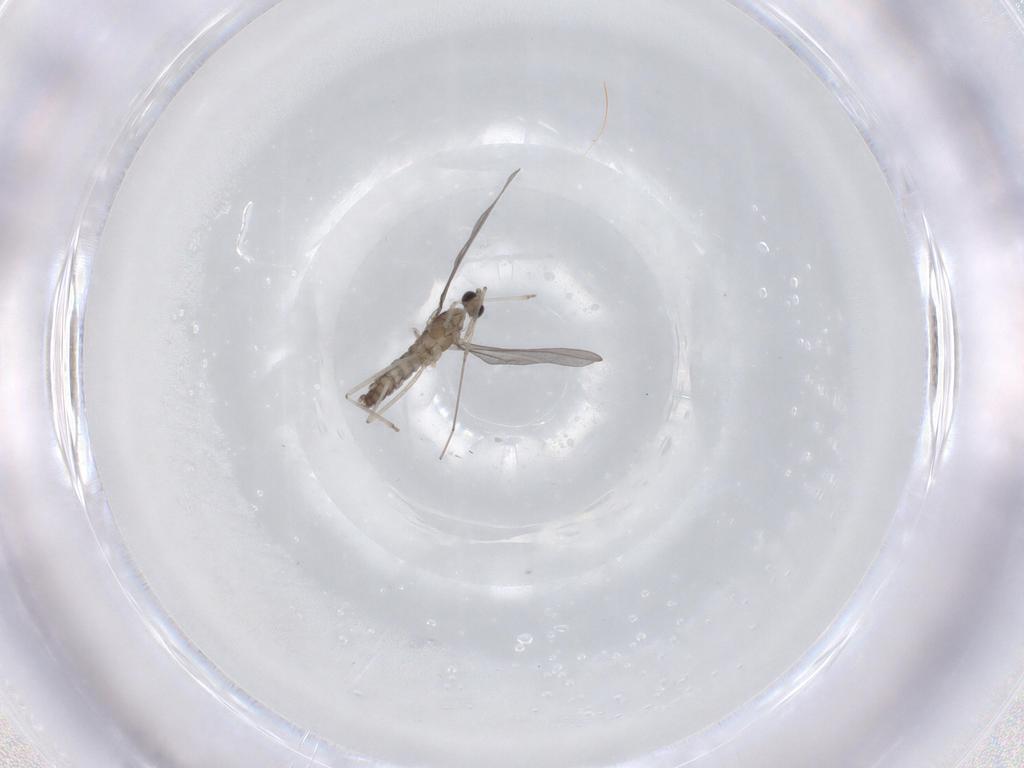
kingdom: Animalia
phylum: Arthropoda
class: Insecta
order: Diptera
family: Cecidomyiidae
